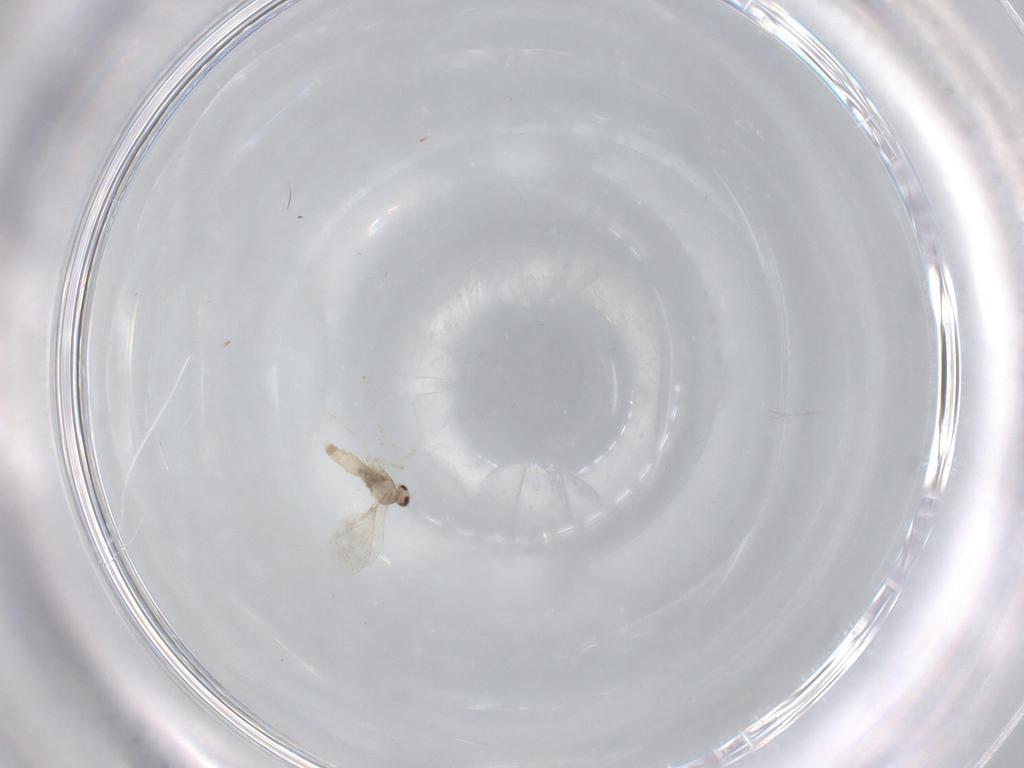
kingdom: Animalia
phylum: Arthropoda
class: Insecta
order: Diptera
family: Cecidomyiidae
